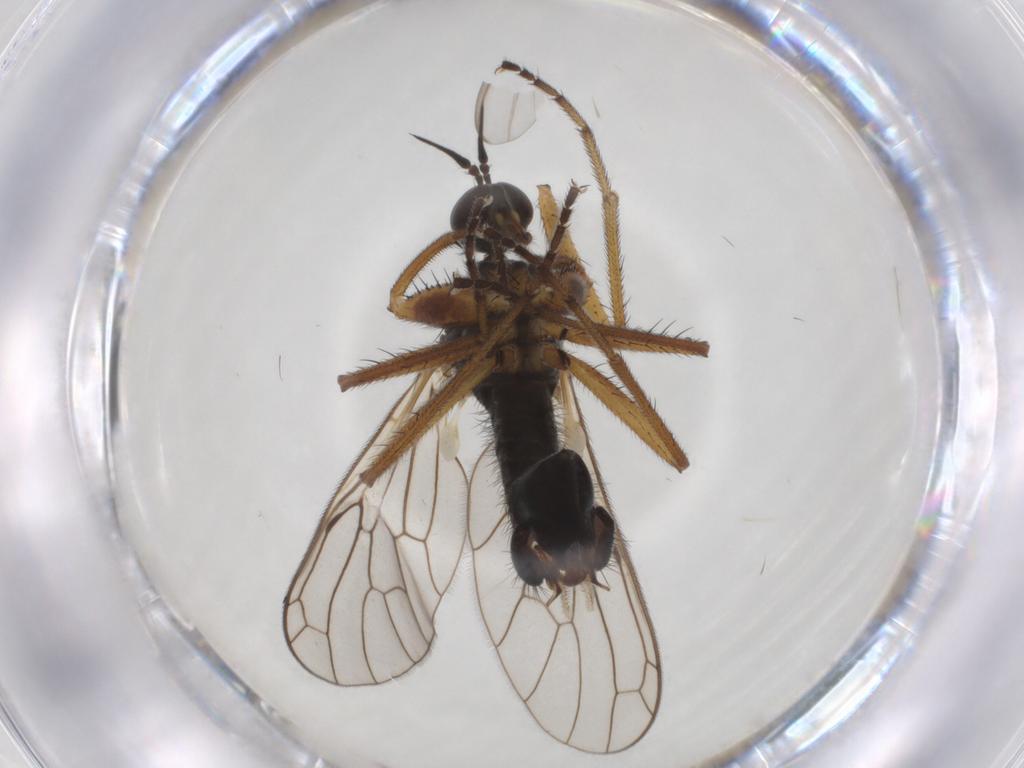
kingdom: Animalia
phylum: Arthropoda
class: Insecta
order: Diptera
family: Empididae
